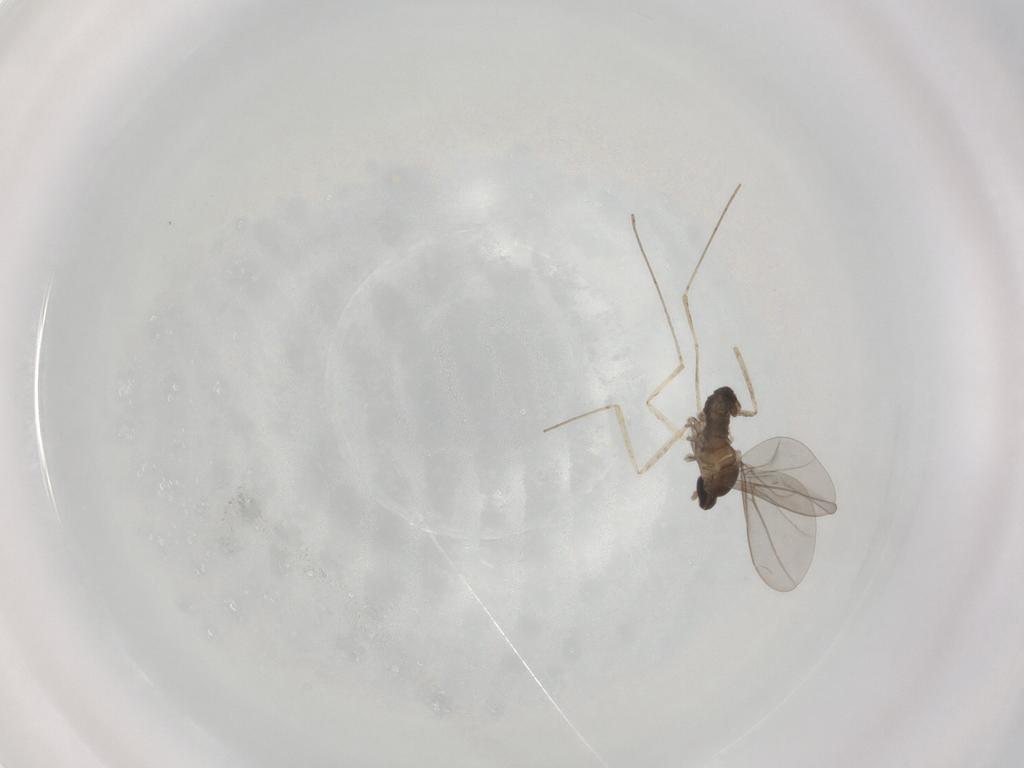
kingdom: Animalia
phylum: Arthropoda
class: Insecta
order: Diptera
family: Cecidomyiidae
